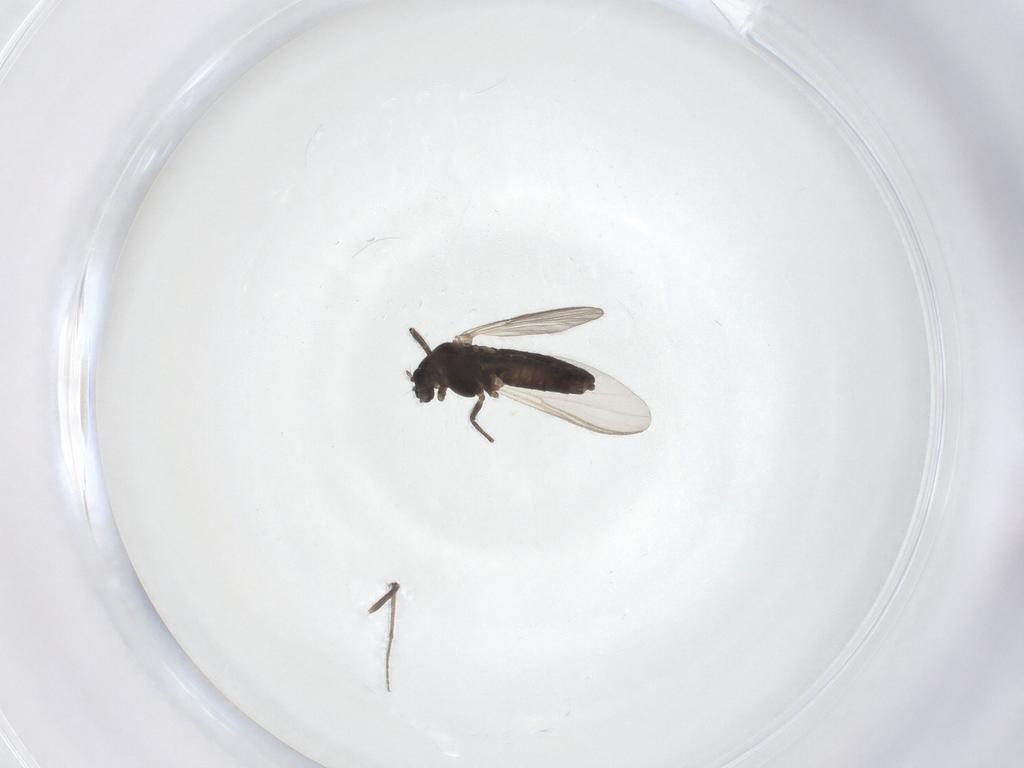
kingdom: Animalia
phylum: Arthropoda
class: Insecta
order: Diptera
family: Chironomidae
